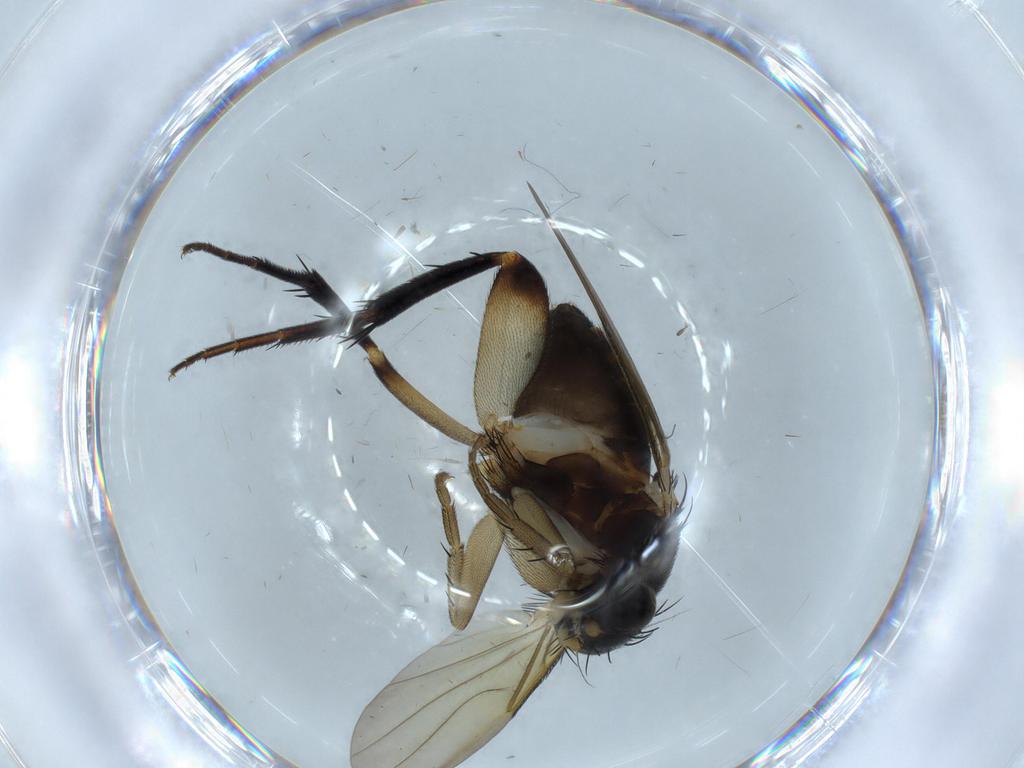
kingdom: Animalia
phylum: Arthropoda
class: Insecta
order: Diptera
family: Phoridae
